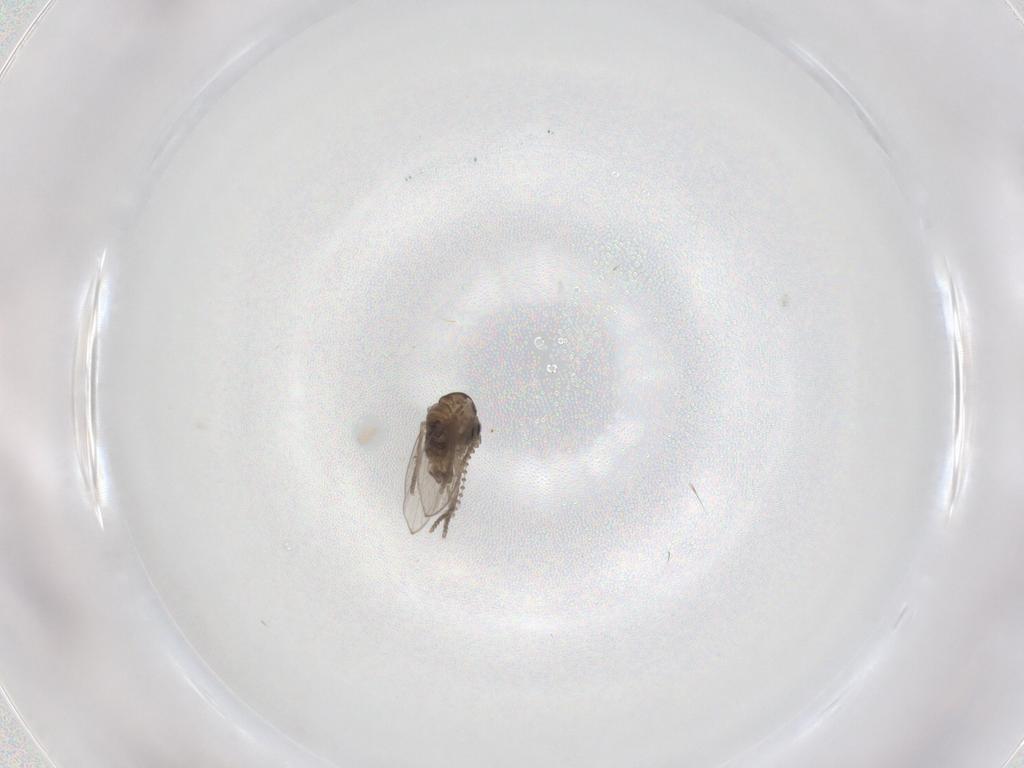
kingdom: Animalia
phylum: Arthropoda
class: Insecta
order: Diptera
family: Psychodidae
